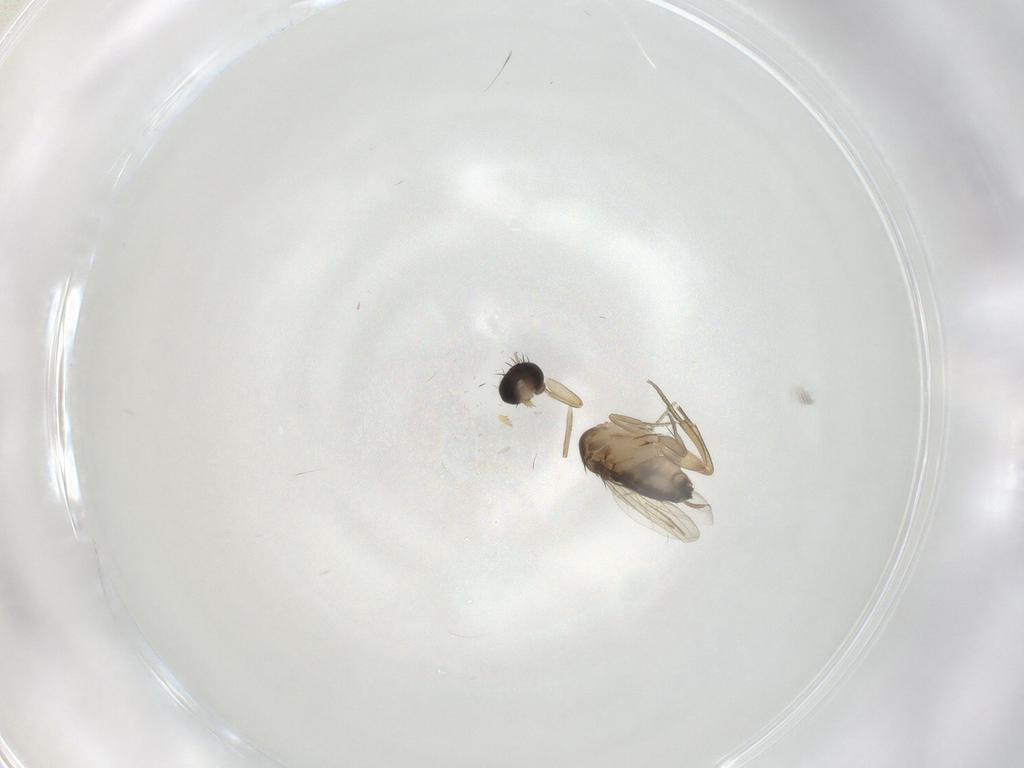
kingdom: Animalia
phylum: Arthropoda
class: Insecta
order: Diptera
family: Chironomidae
